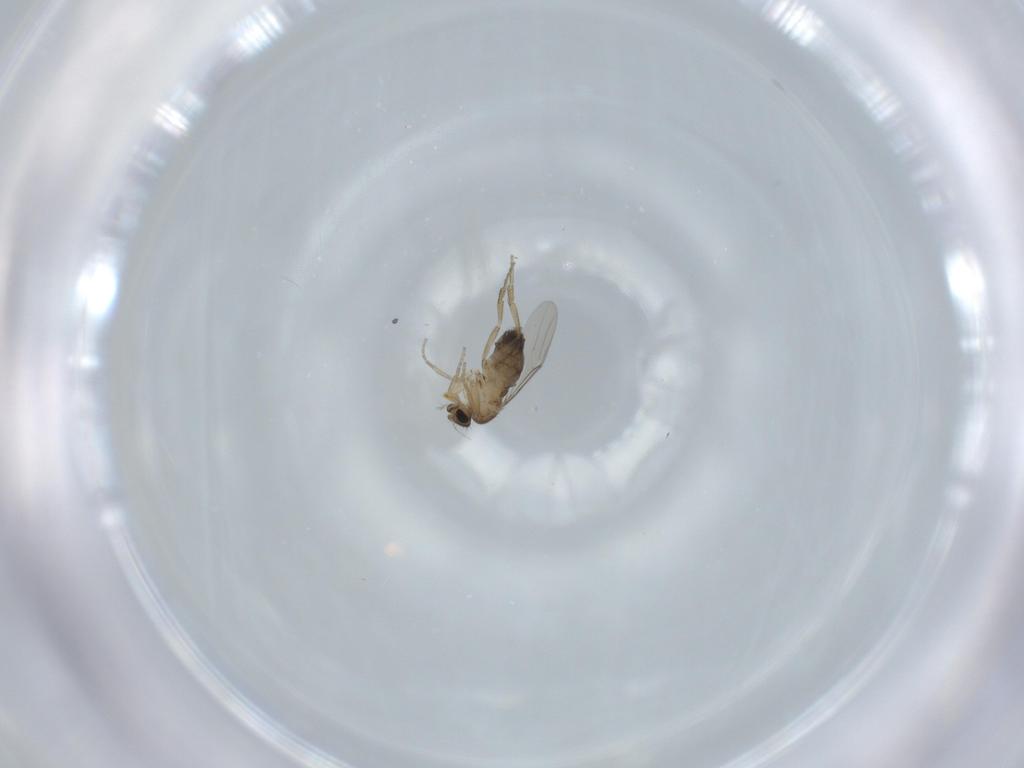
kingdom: Animalia
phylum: Arthropoda
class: Insecta
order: Diptera
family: Phoridae
